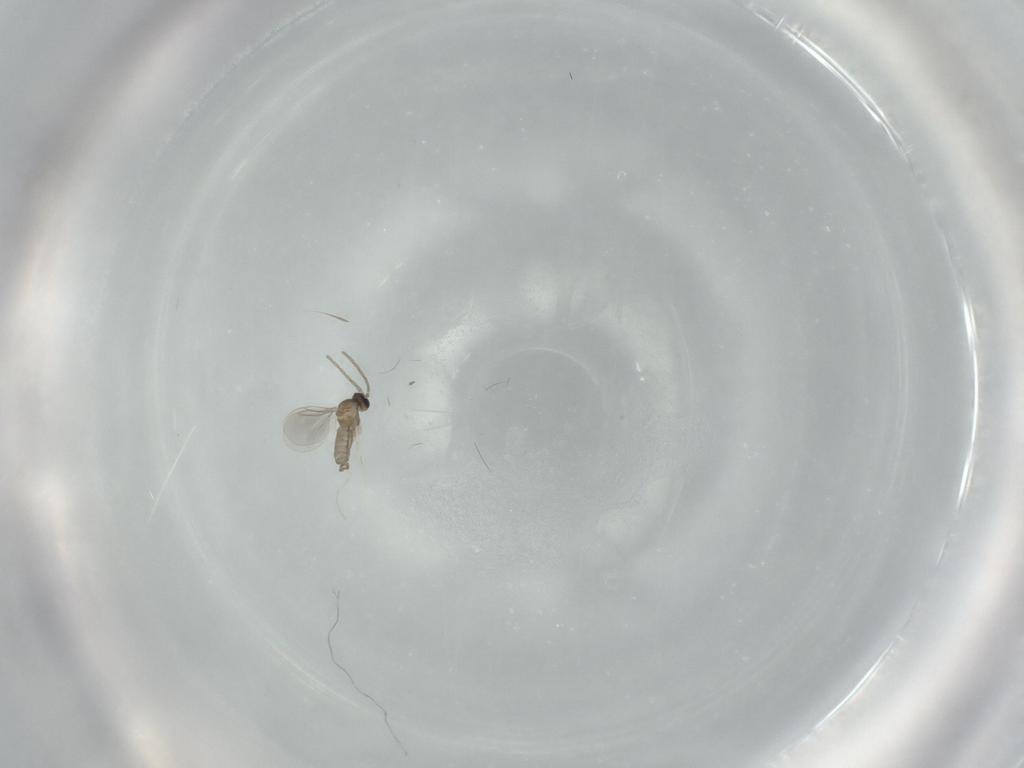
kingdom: Animalia
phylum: Arthropoda
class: Insecta
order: Diptera
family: Cecidomyiidae
